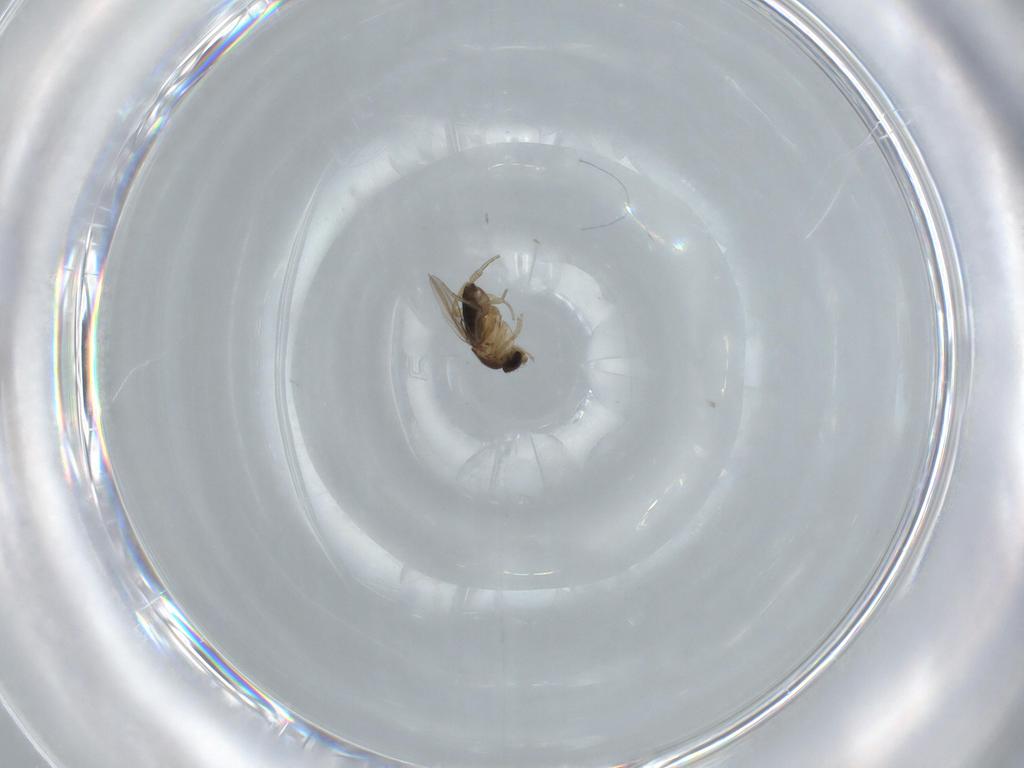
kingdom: Animalia
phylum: Arthropoda
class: Insecta
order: Diptera
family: Phoridae
